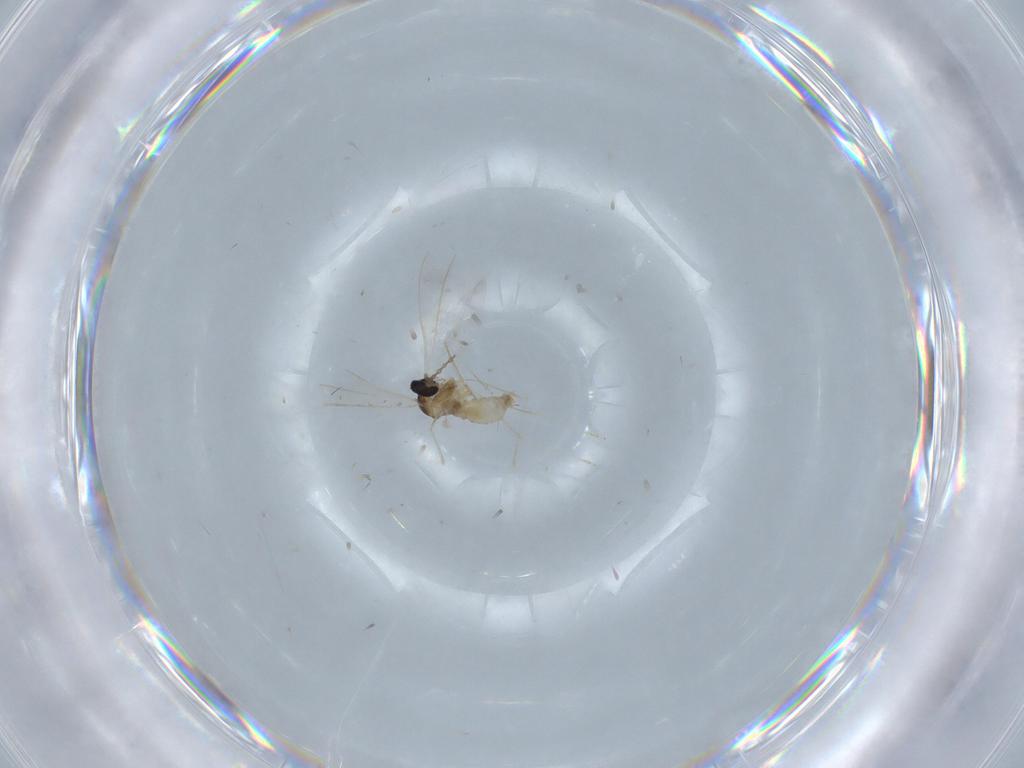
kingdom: Animalia
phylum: Arthropoda
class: Insecta
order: Diptera
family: Cecidomyiidae
